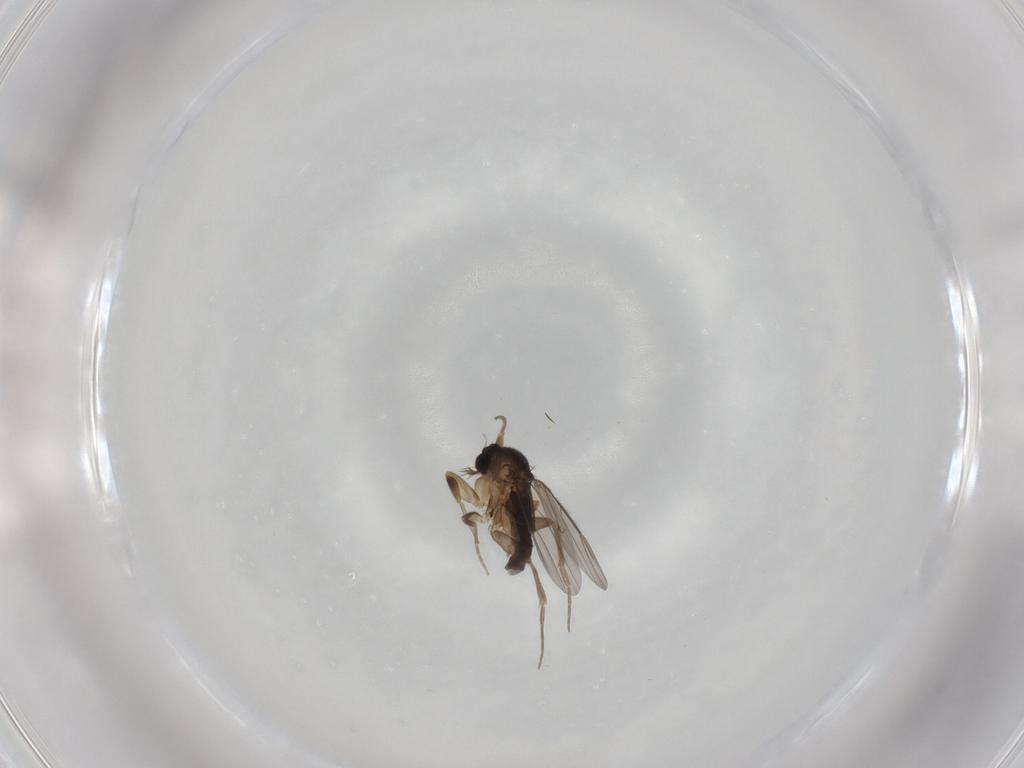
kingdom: Animalia
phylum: Arthropoda
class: Insecta
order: Diptera
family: Phoridae
